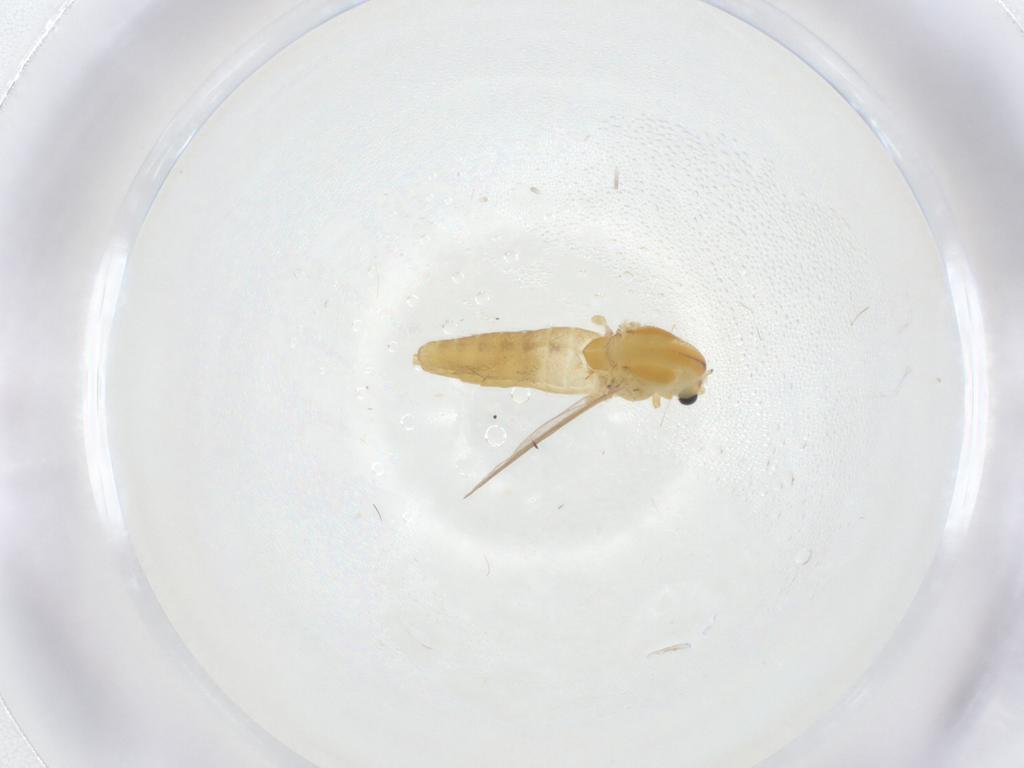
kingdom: Animalia
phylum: Arthropoda
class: Insecta
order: Diptera
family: Chironomidae
